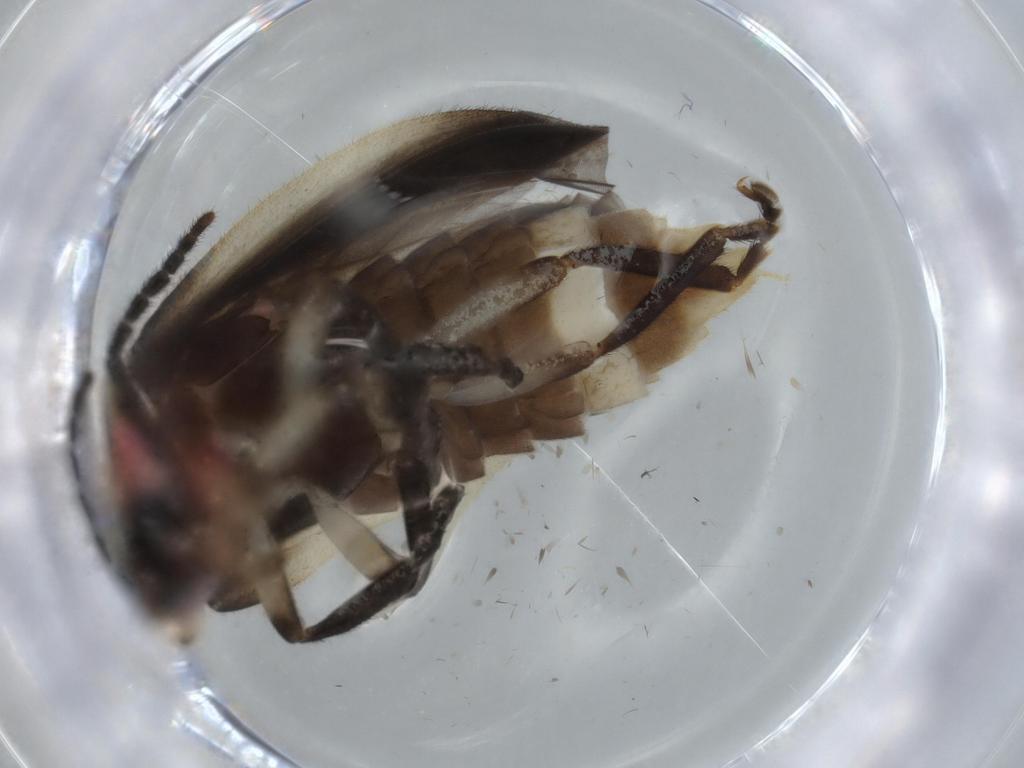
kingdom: Animalia
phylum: Arthropoda
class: Insecta
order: Coleoptera
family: Lampyridae
